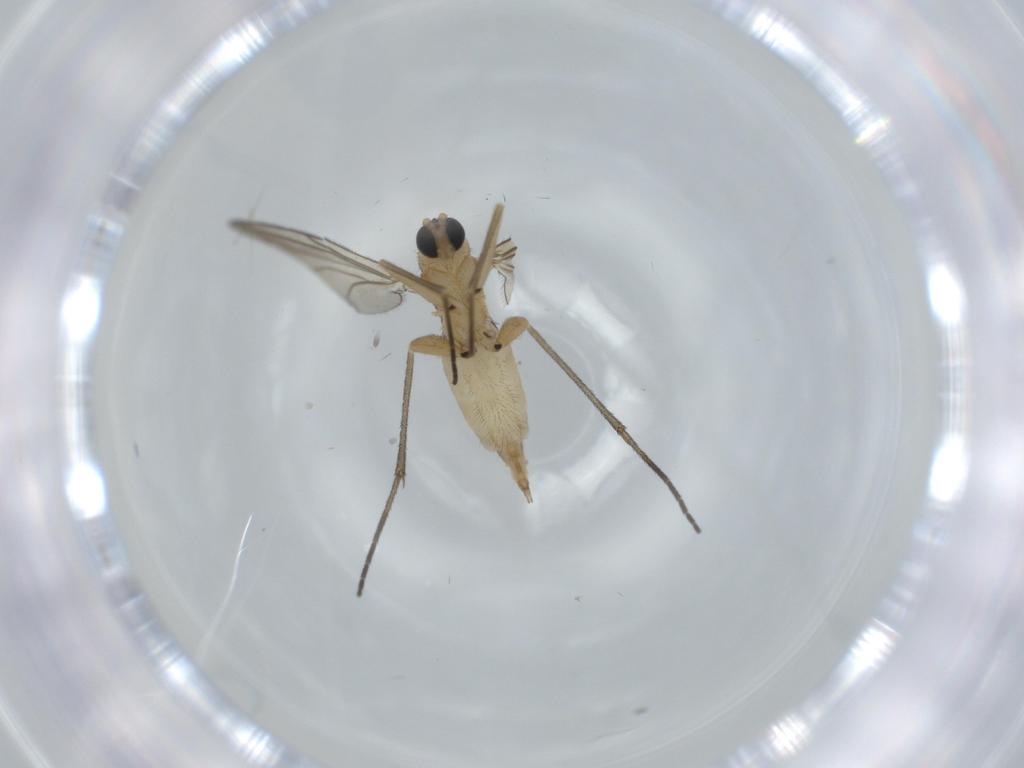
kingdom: Animalia
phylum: Arthropoda
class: Insecta
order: Diptera
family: Sciaridae
